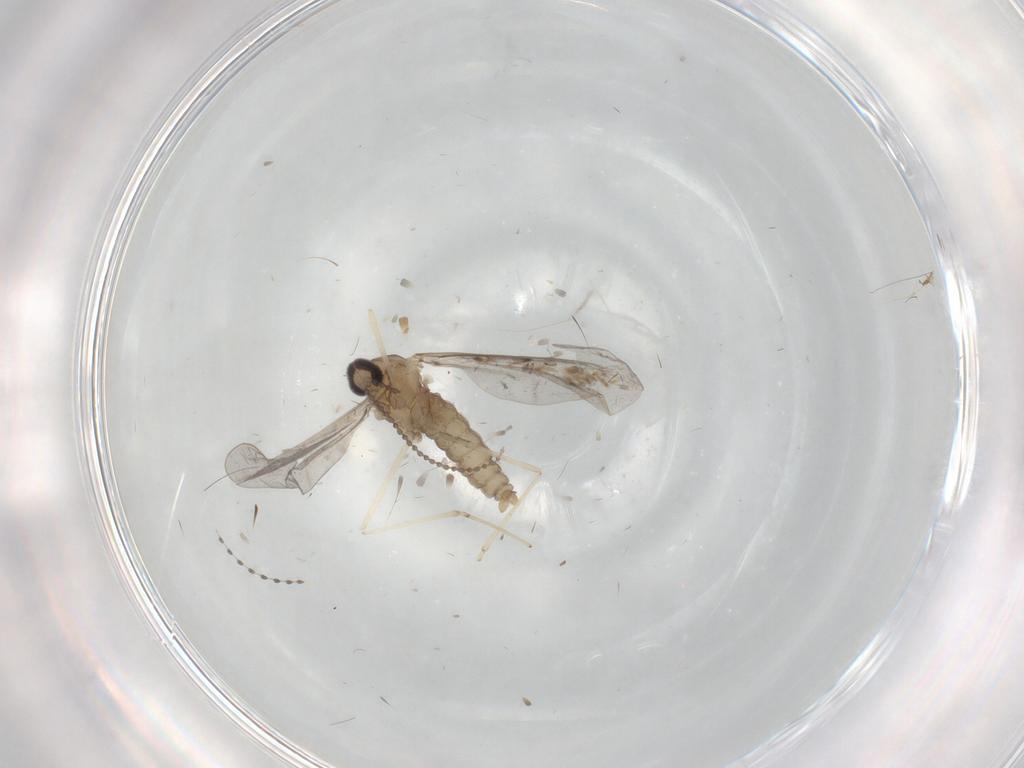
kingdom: Animalia
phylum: Arthropoda
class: Insecta
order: Diptera
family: Cecidomyiidae
